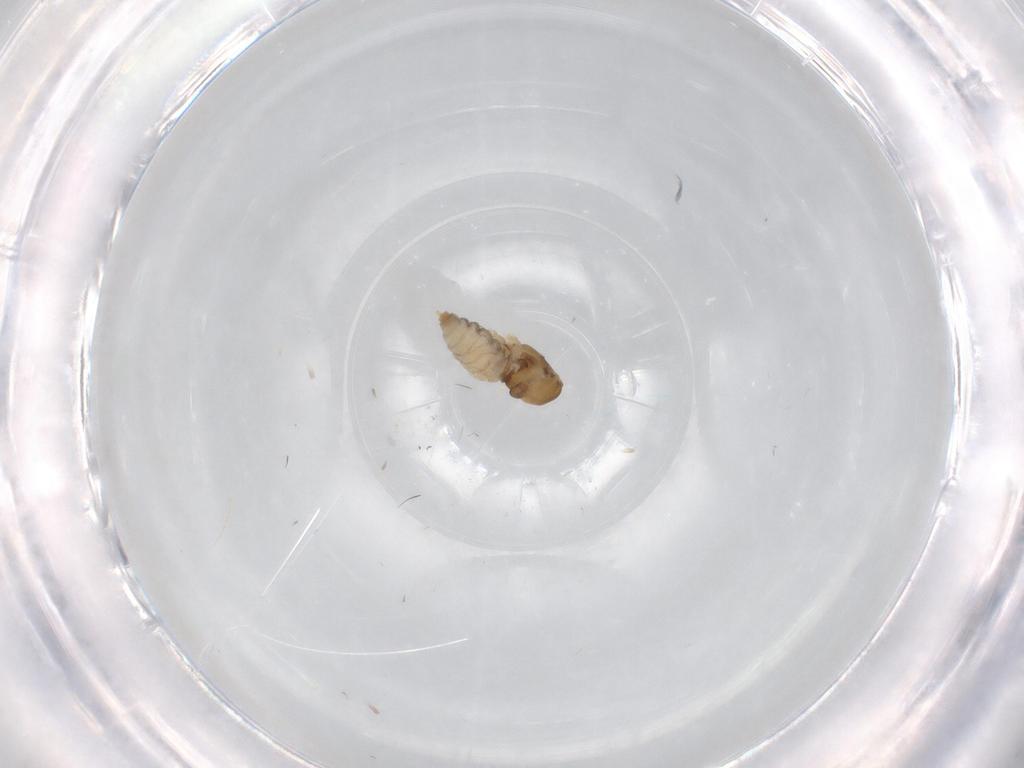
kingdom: Animalia
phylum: Arthropoda
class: Insecta
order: Diptera
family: Cecidomyiidae
